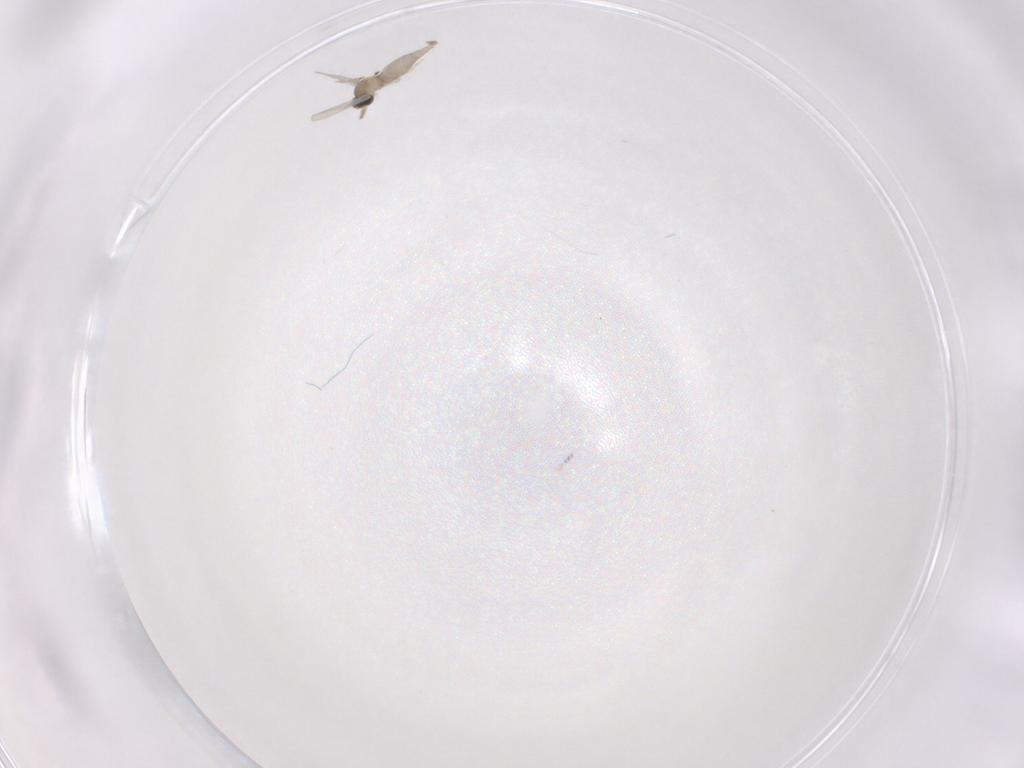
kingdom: Animalia
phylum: Arthropoda
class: Insecta
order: Diptera
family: Cecidomyiidae
